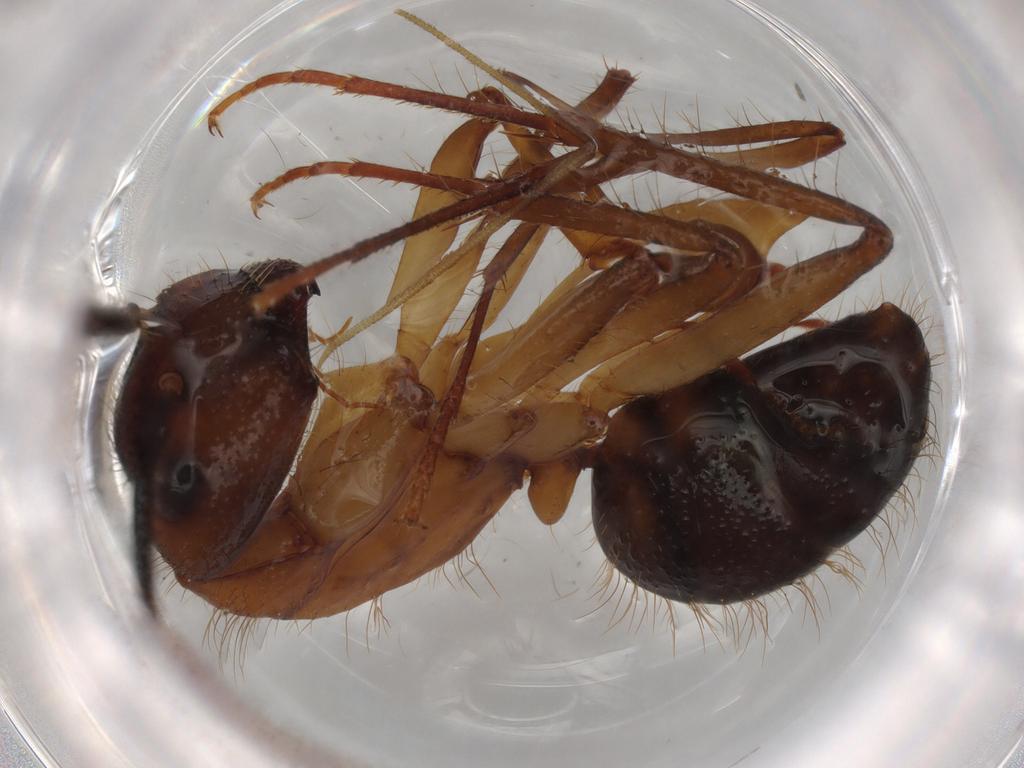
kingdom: Animalia
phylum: Arthropoda
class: Insecta
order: Hymenoptera
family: Formicidae
